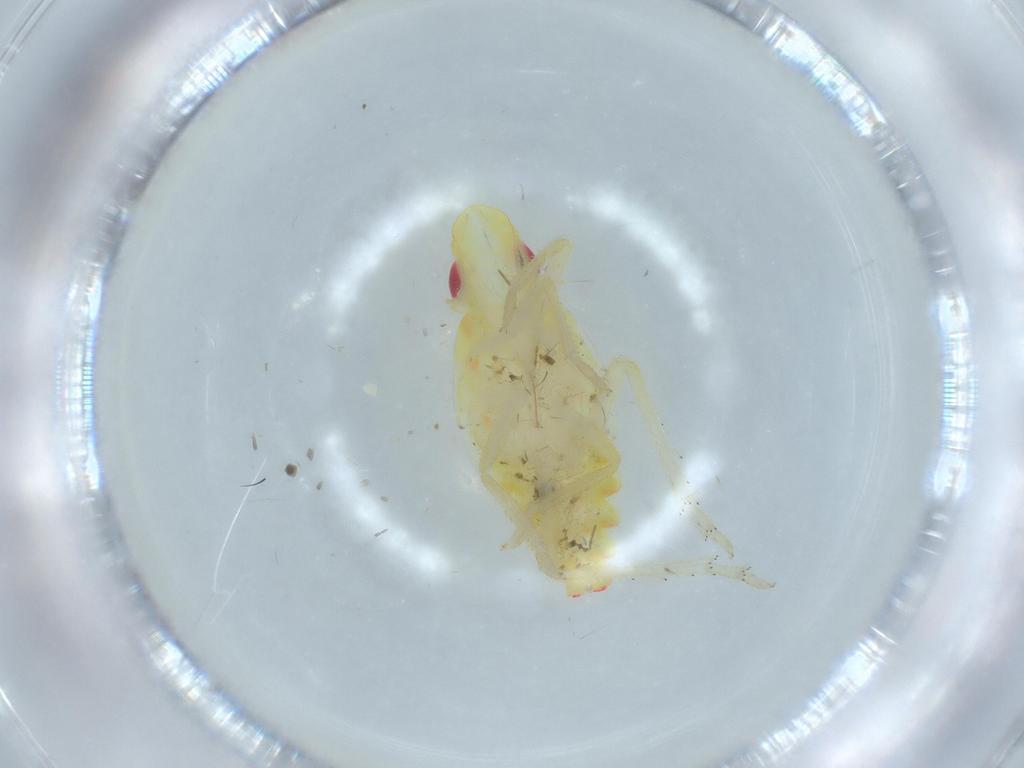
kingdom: Animalia
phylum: Arthropoda
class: Insecta
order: Hemiptera
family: Tropiduchidae
